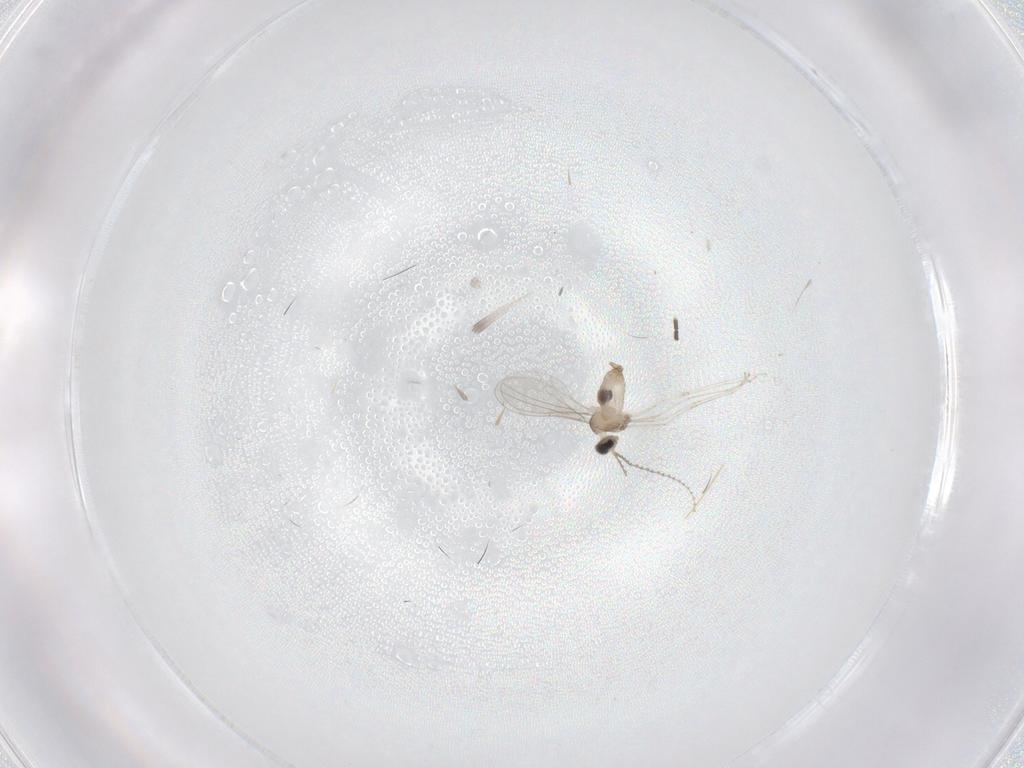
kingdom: Animalia
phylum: Arthropoda
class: Insecta
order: Diptera
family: Cecidomyiidae
